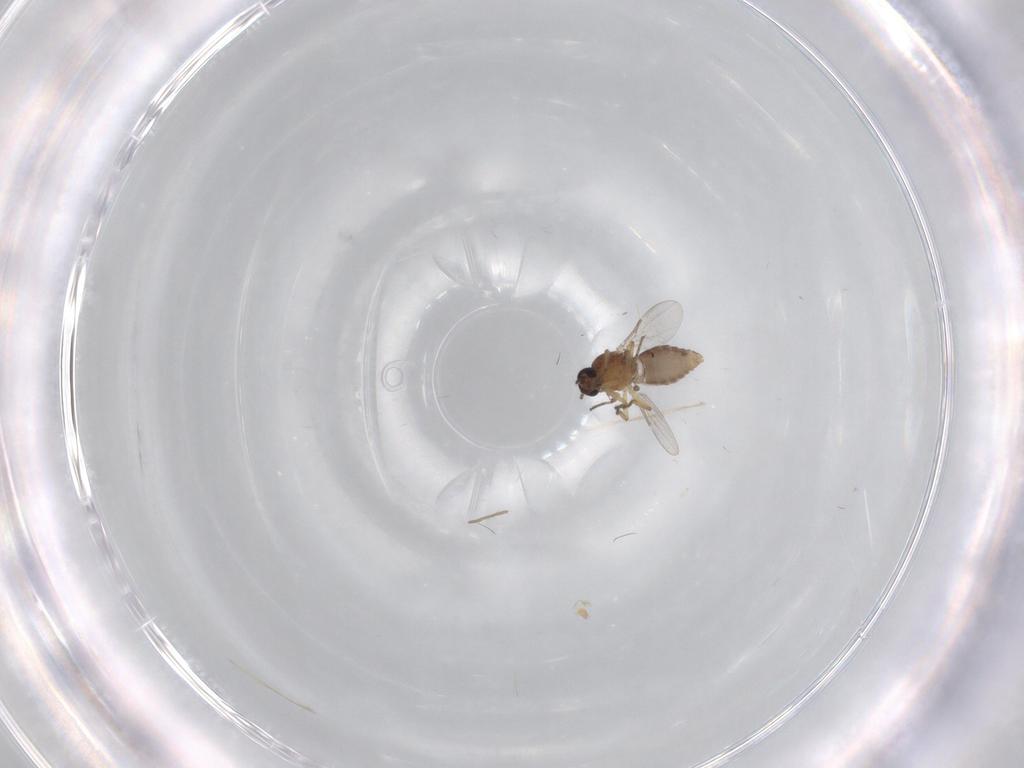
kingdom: Animalia
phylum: Arthropoda
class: Insecta
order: Diptera
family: Ceratopogonidae
